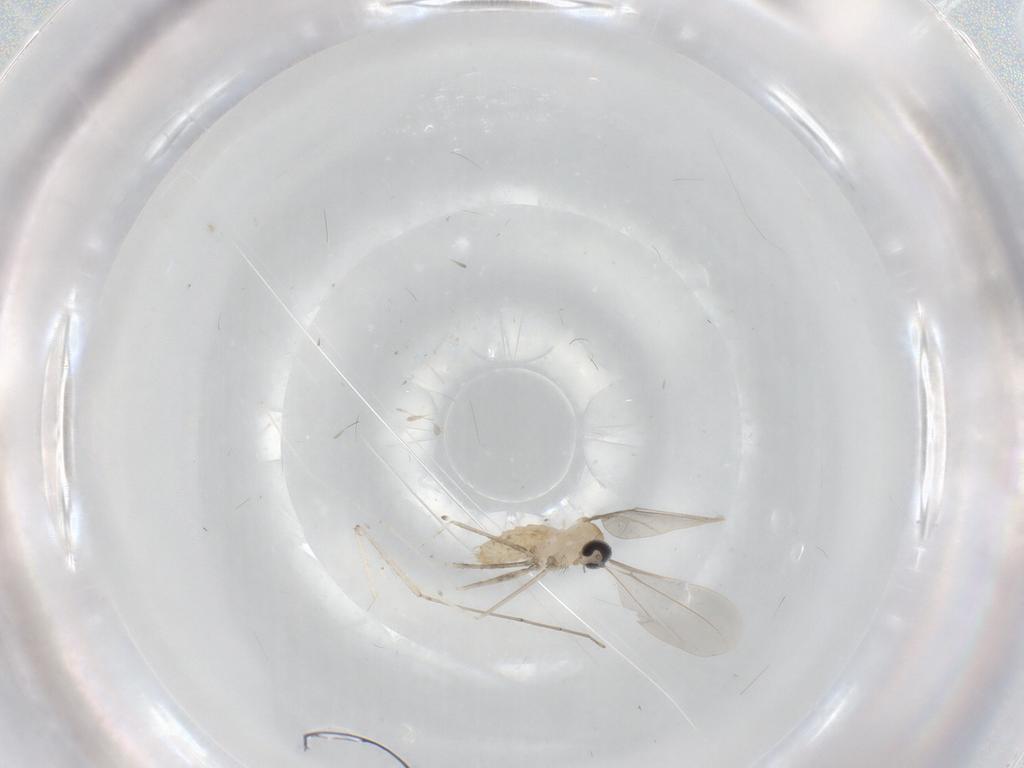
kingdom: Animalia
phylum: Arthropoda
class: Insecta
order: Diptera
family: Cecidomyiidae
